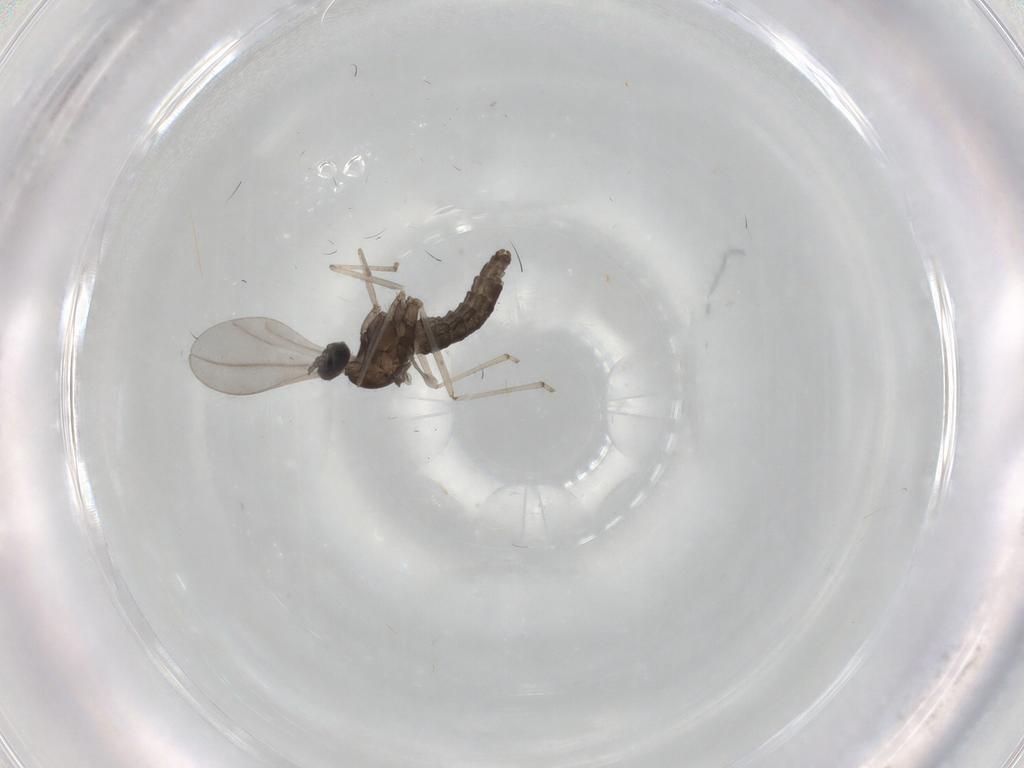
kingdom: Animalia
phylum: Arthropoda
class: Insecta
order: Diptera
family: Cecidomyiidae
